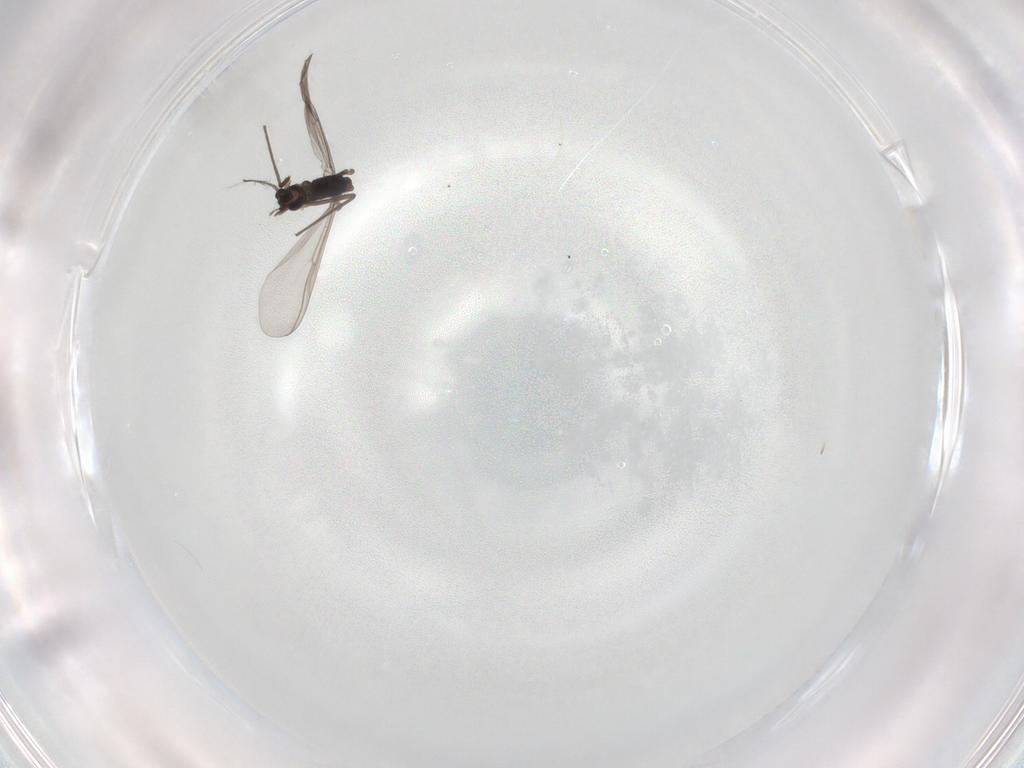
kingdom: Animalia
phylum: Arthropoda
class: Insecta
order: Diptera
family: Chironomidae
